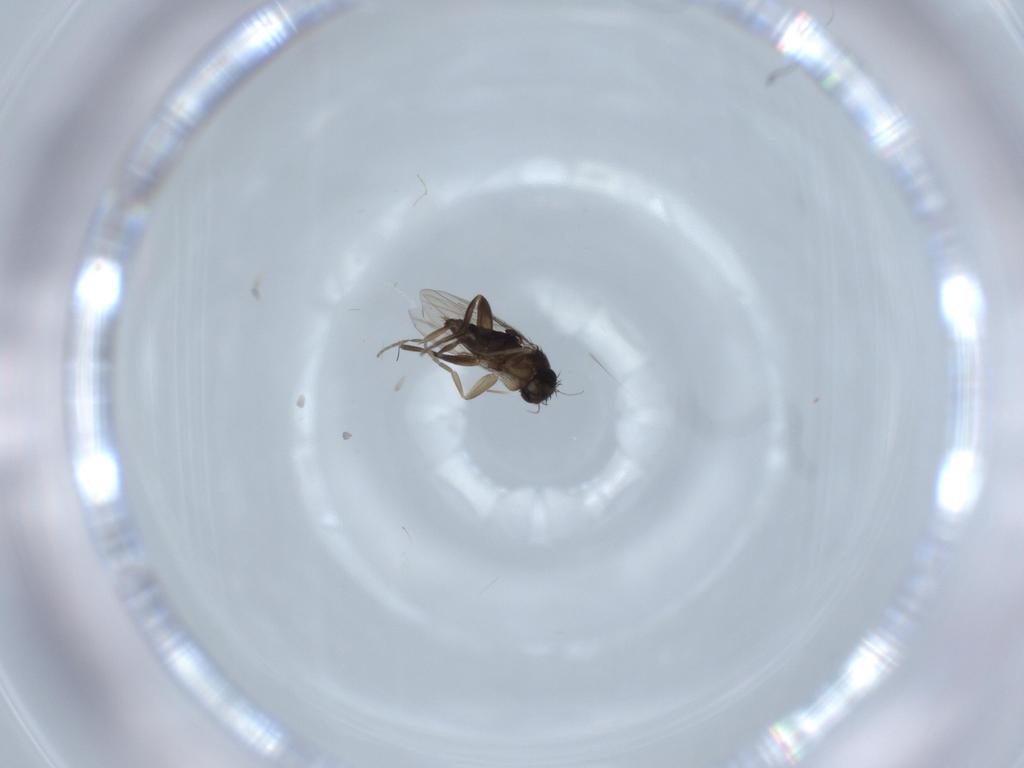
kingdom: Animalia
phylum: Arthropoda
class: Insecta
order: Diptera
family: Phoridae
